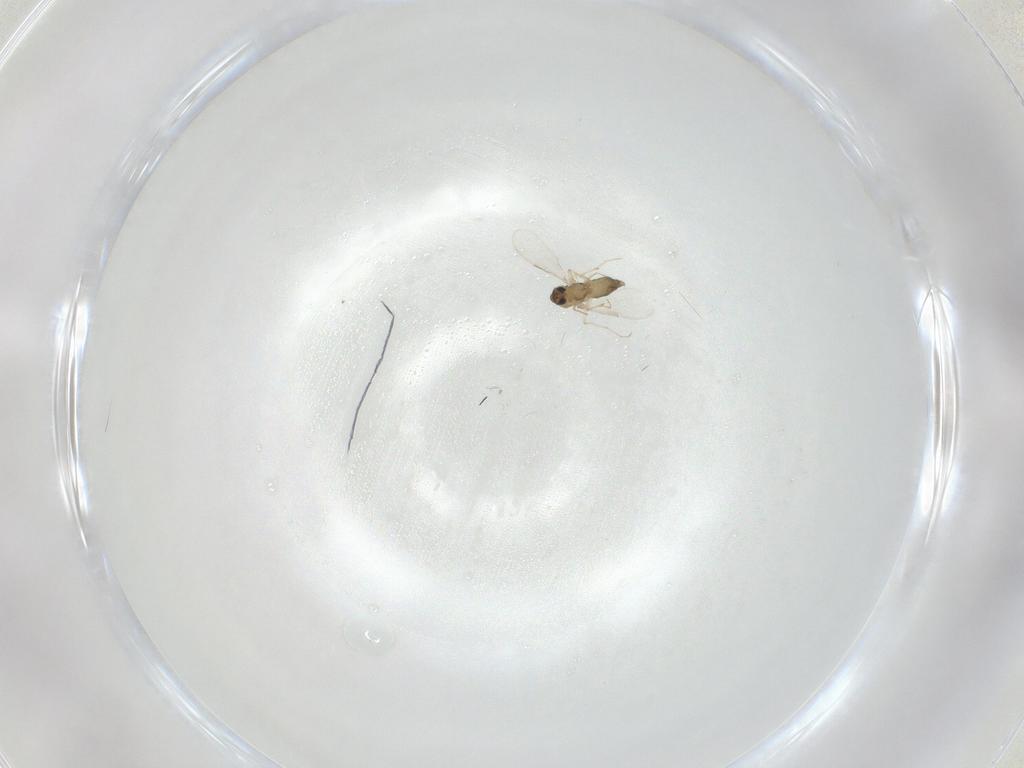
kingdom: Animalia
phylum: Arthropoda
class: Insecta
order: Diptera
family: Chironomidae
